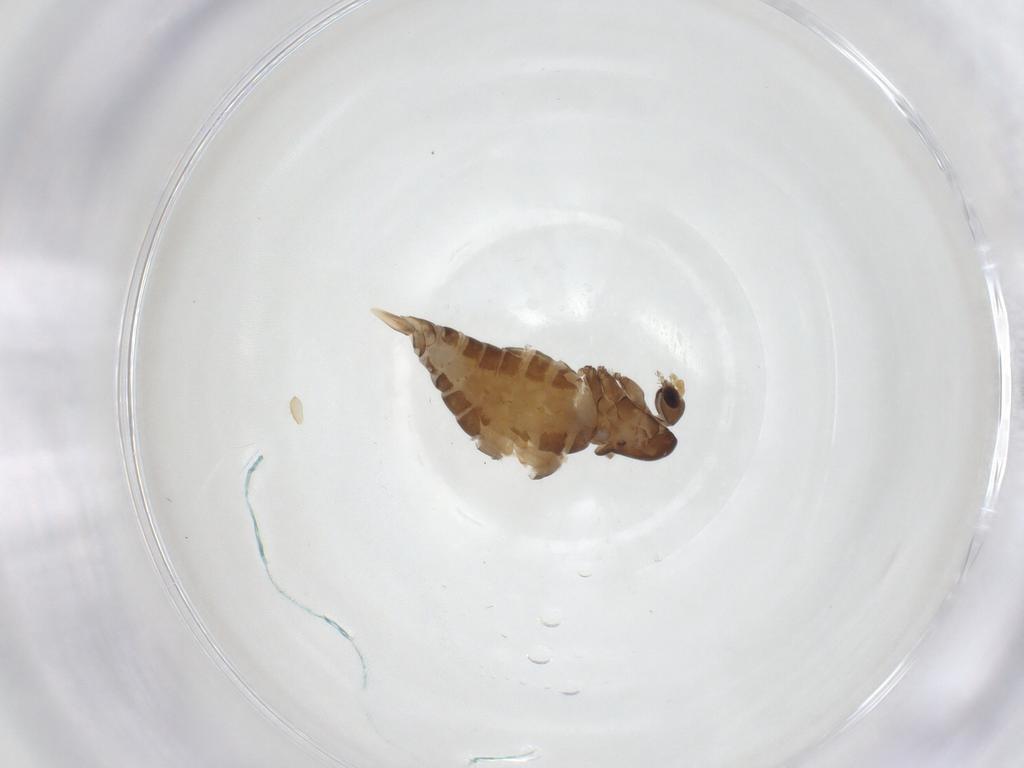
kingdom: Animalia
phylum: Arthropoda
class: Insecta
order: Diptera
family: Psychodidae
